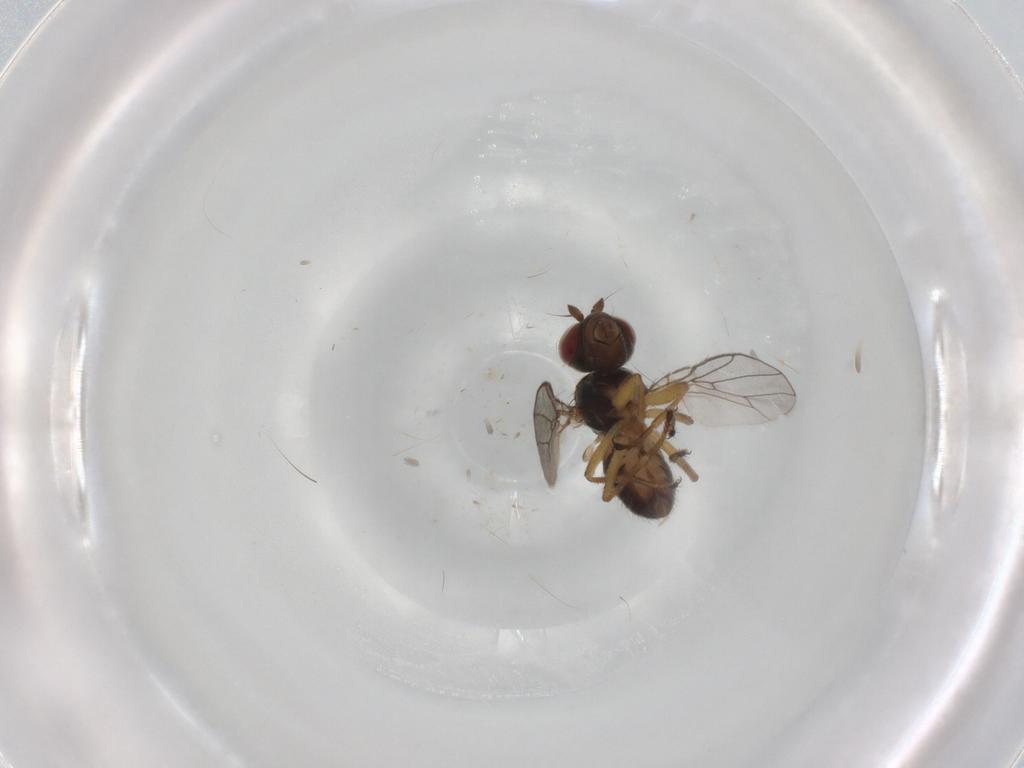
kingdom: Animalia
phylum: Arthropoda
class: Insecta
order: Diptera
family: Ephydridae
